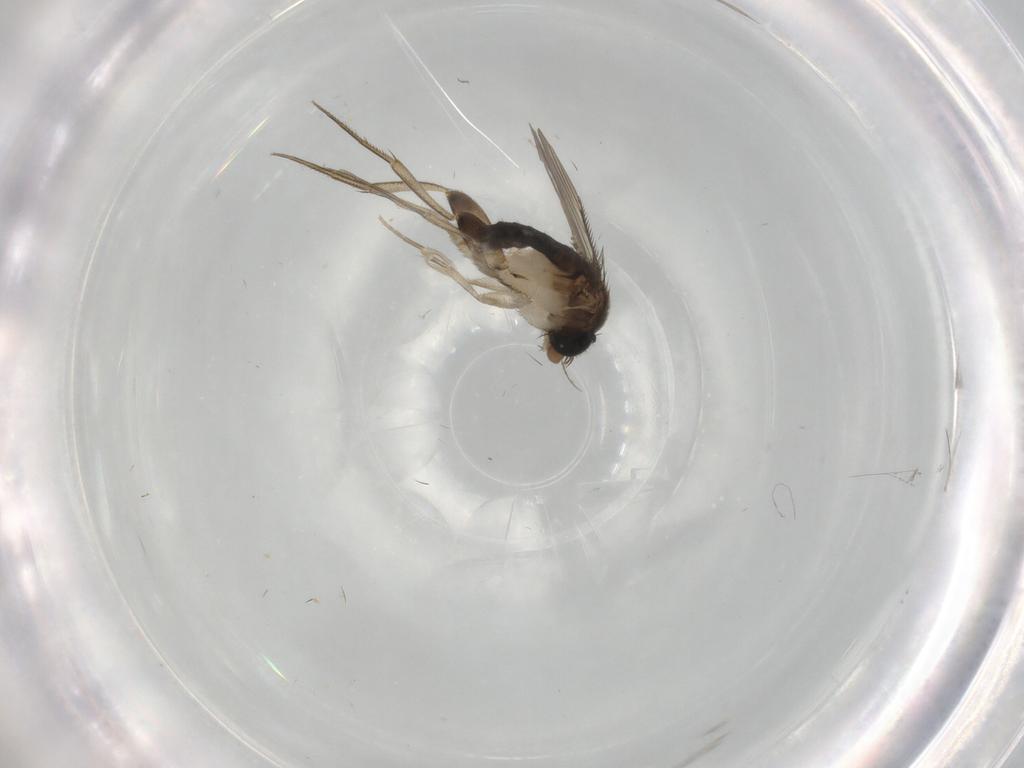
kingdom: Animalia
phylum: Arthropoda
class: Insecta
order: Diptera
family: Phoridae
